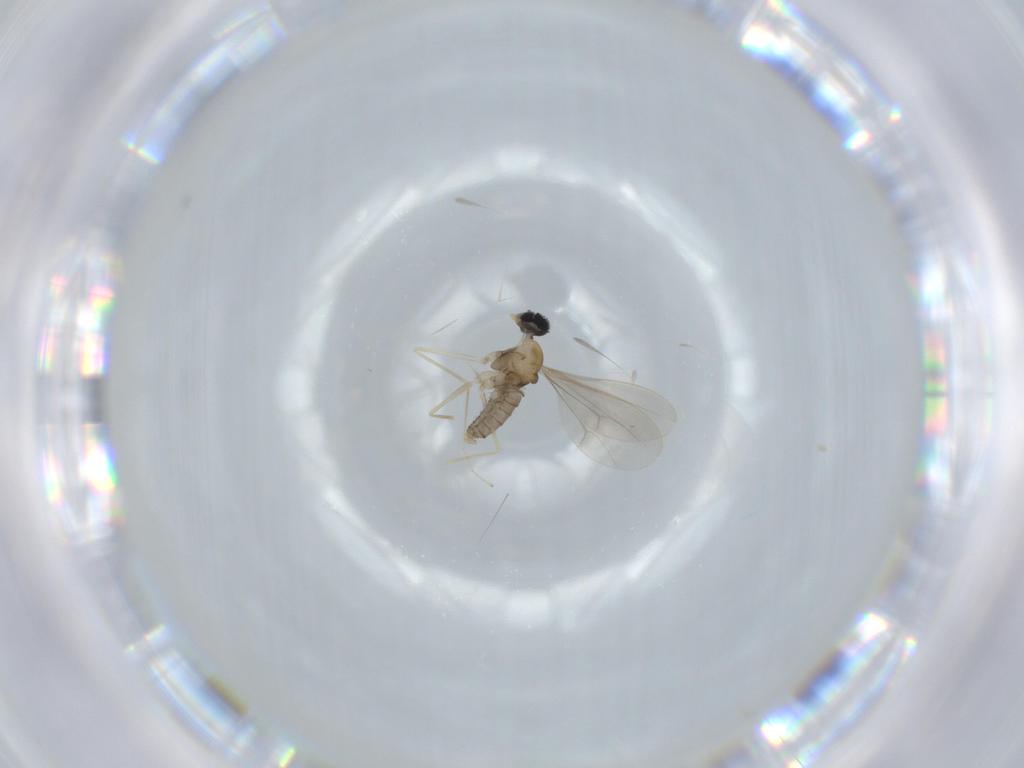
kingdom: Animalia
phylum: Arthropoda
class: Insecta
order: Diptera
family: Cecidomyiidae
